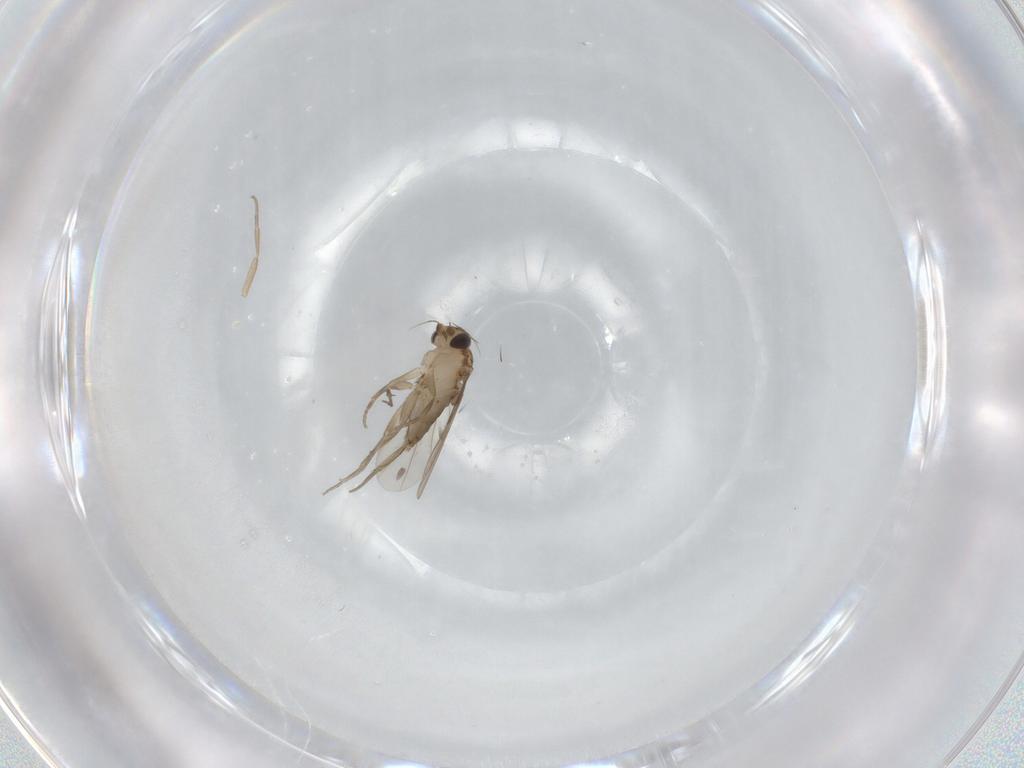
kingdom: Animalia
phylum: Arthropoda
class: Insecta
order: Diptera
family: Phoridae
